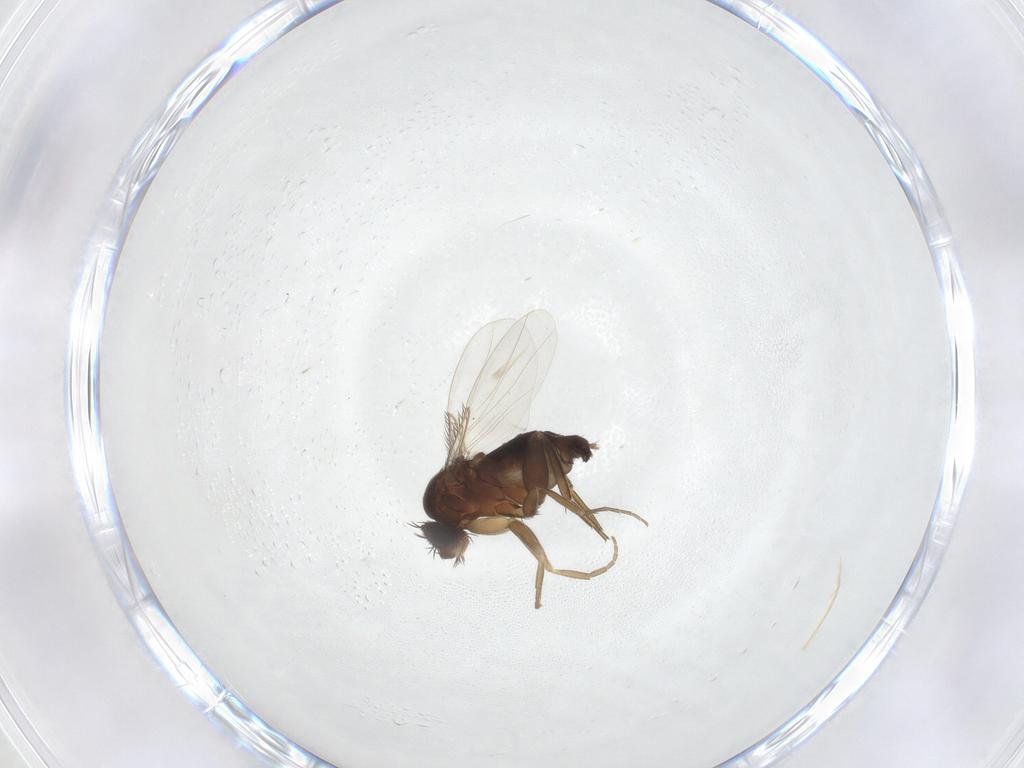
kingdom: Animalia
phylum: Arthropoda
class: Insecta
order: Diptera
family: Phoridae
